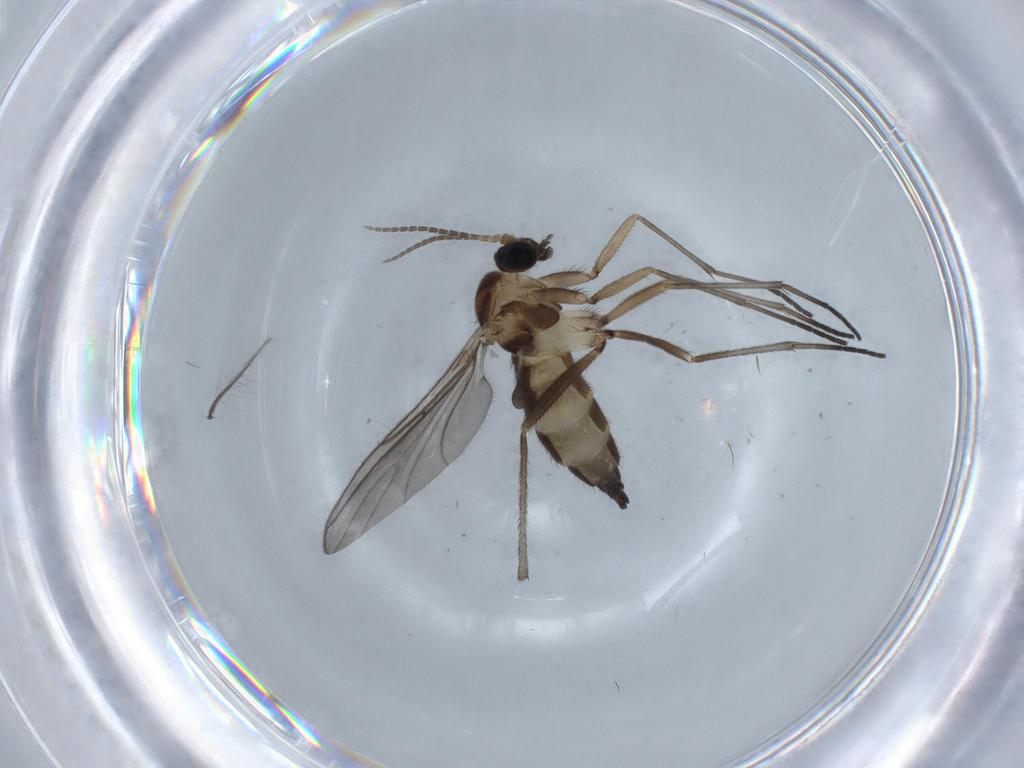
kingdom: Animalia
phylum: Arthropoda
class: Insecta
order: Diptera
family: Sciaridae
